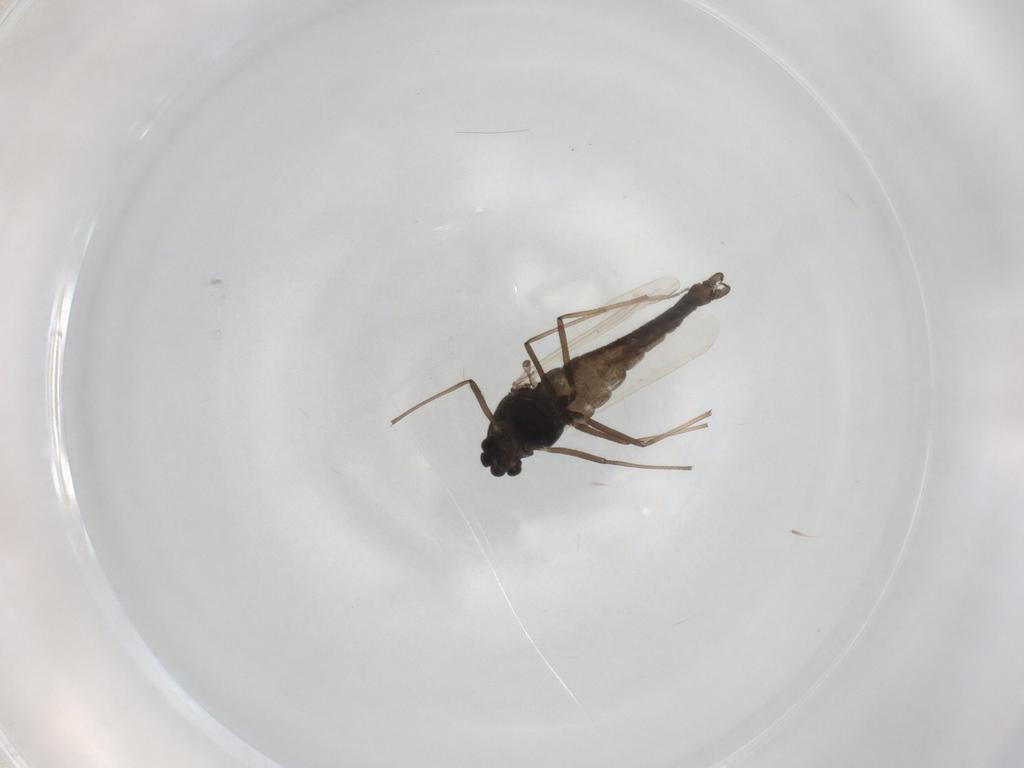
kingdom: Animalia
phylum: Arthropoda
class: Insecta
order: Diptera
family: Chironomidae
